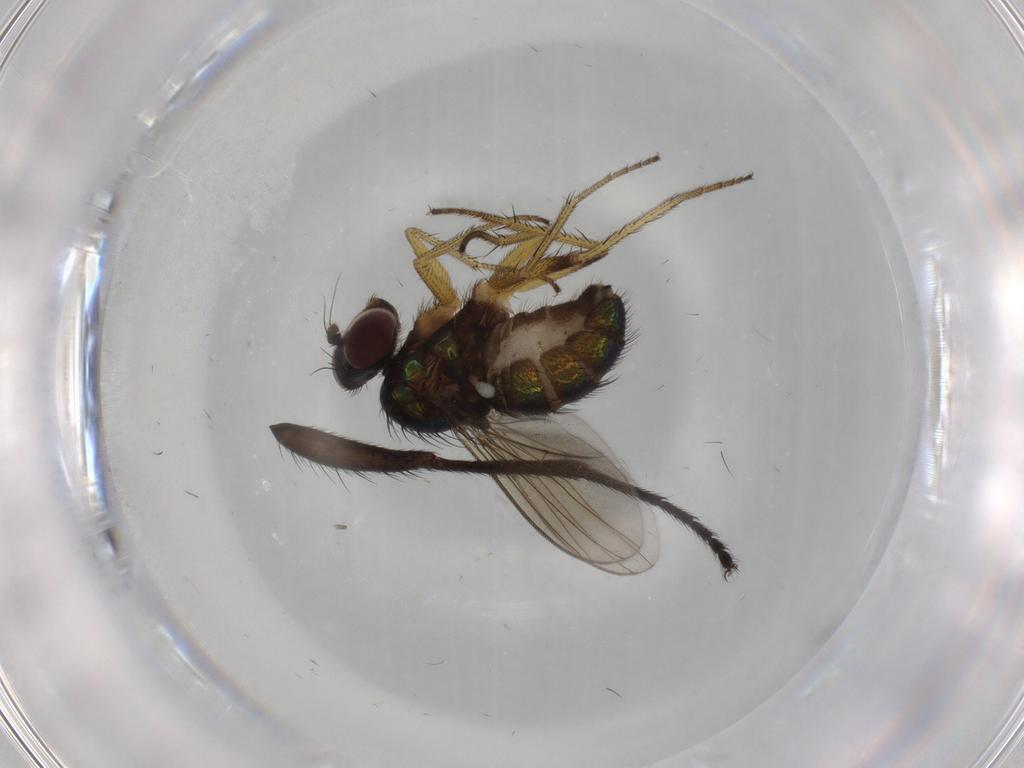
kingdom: Animalia
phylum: Arthropoda
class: Insecta
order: Diptera
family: Dolichopodidae
